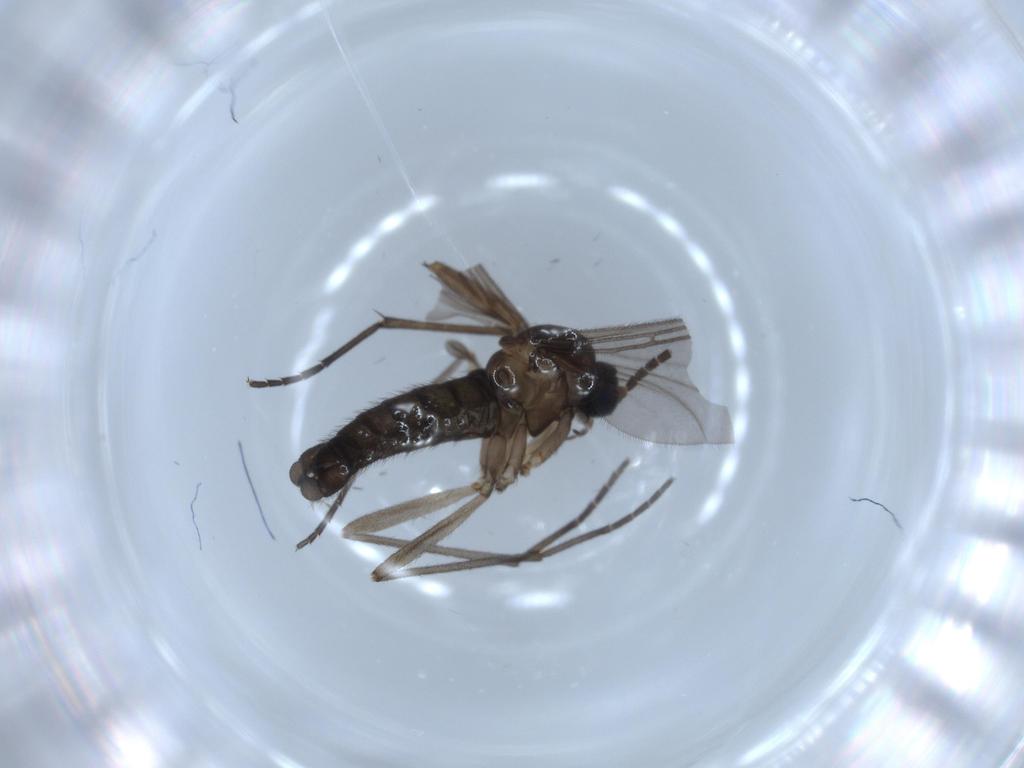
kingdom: Animalia
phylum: Arthropoda
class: Insecta
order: Diptera
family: Sciaridae
